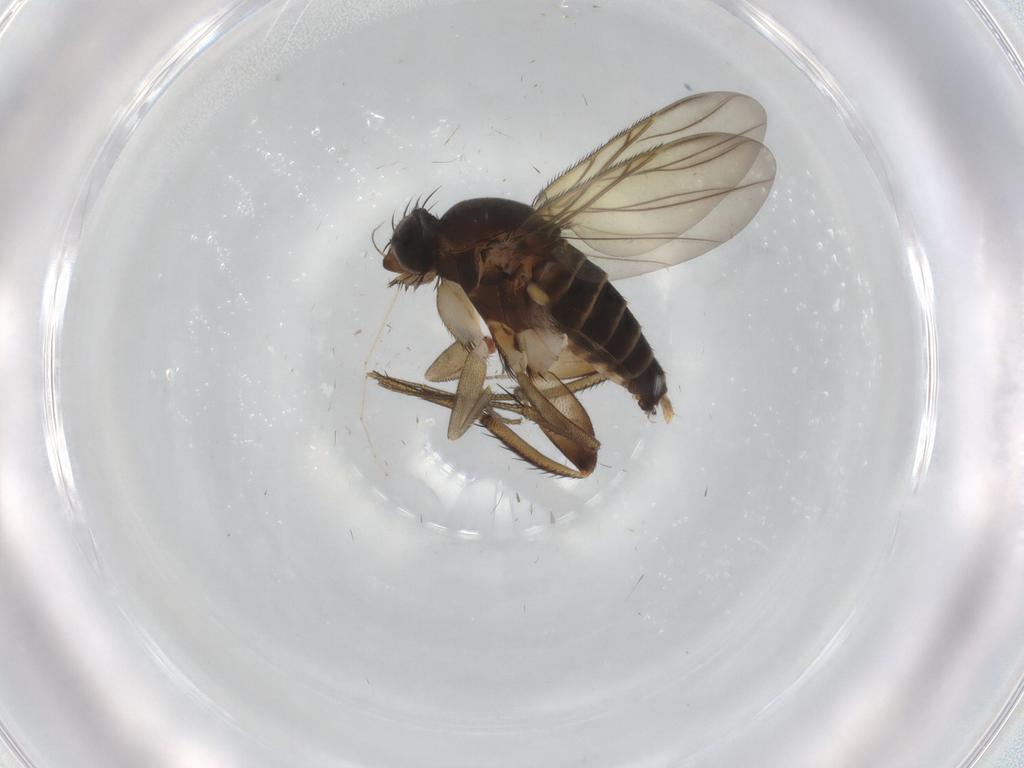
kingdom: Animalia
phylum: Arthropoda
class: Insecta
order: Diptera
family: Phoridae
